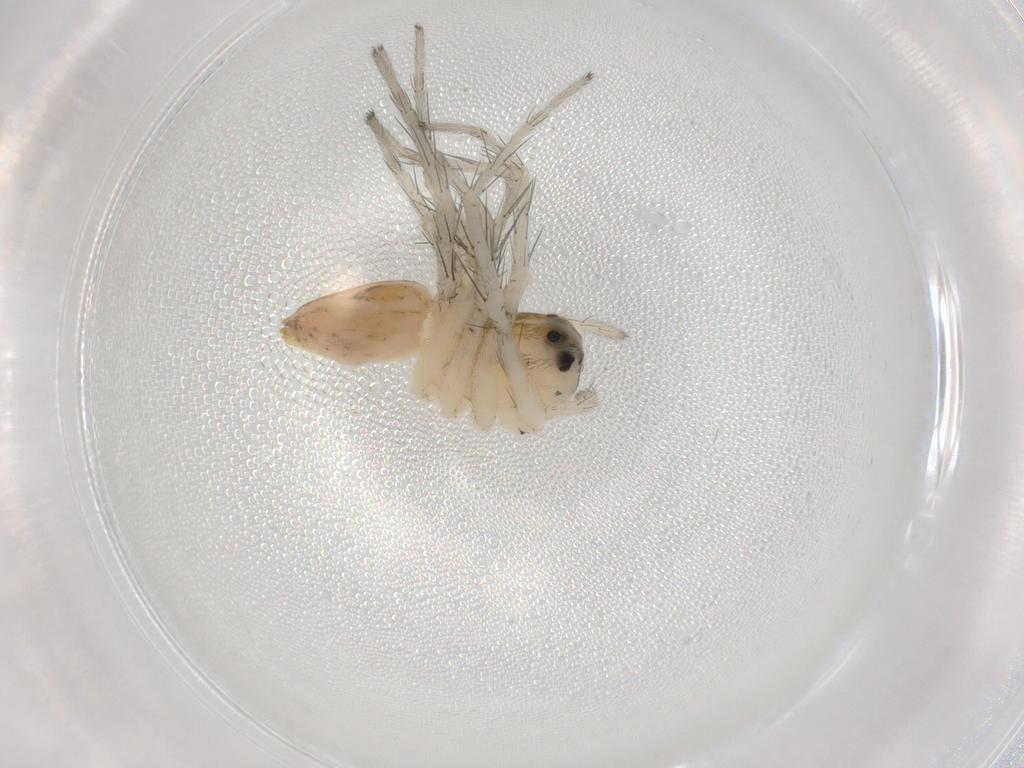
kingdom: Animalia
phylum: Arthropoda
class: Arachnida
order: Araneae
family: Oxyopidae
